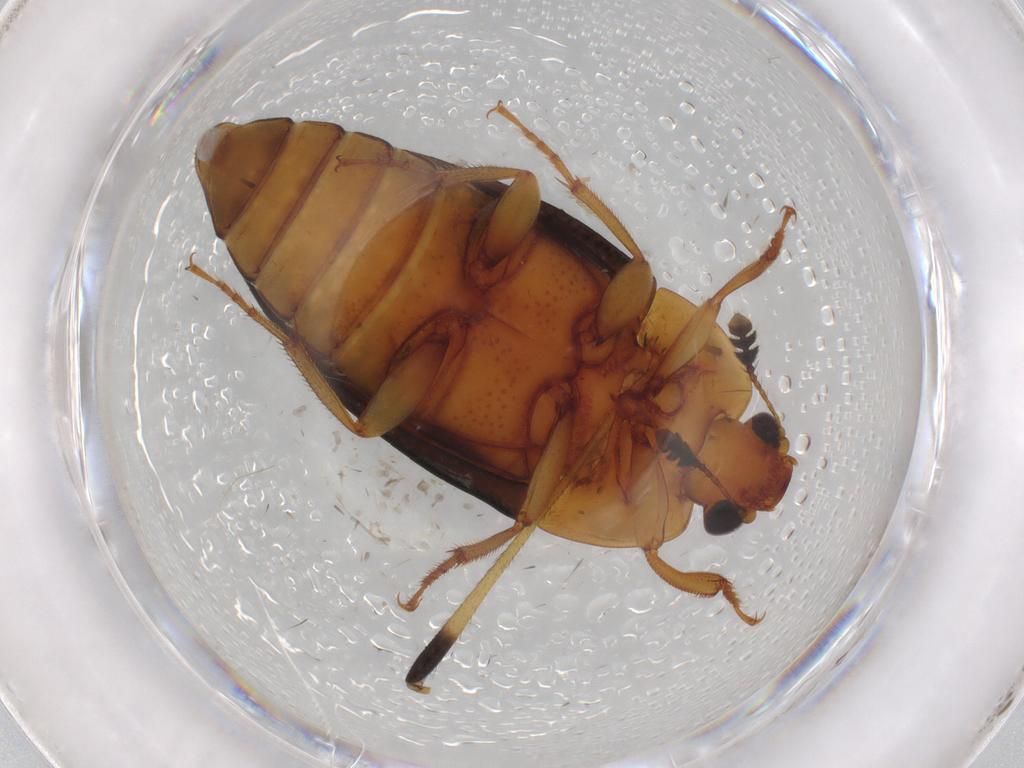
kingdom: Animalia
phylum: Arthropoda
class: Insecta
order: Coleoptera
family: Nitidulidae
